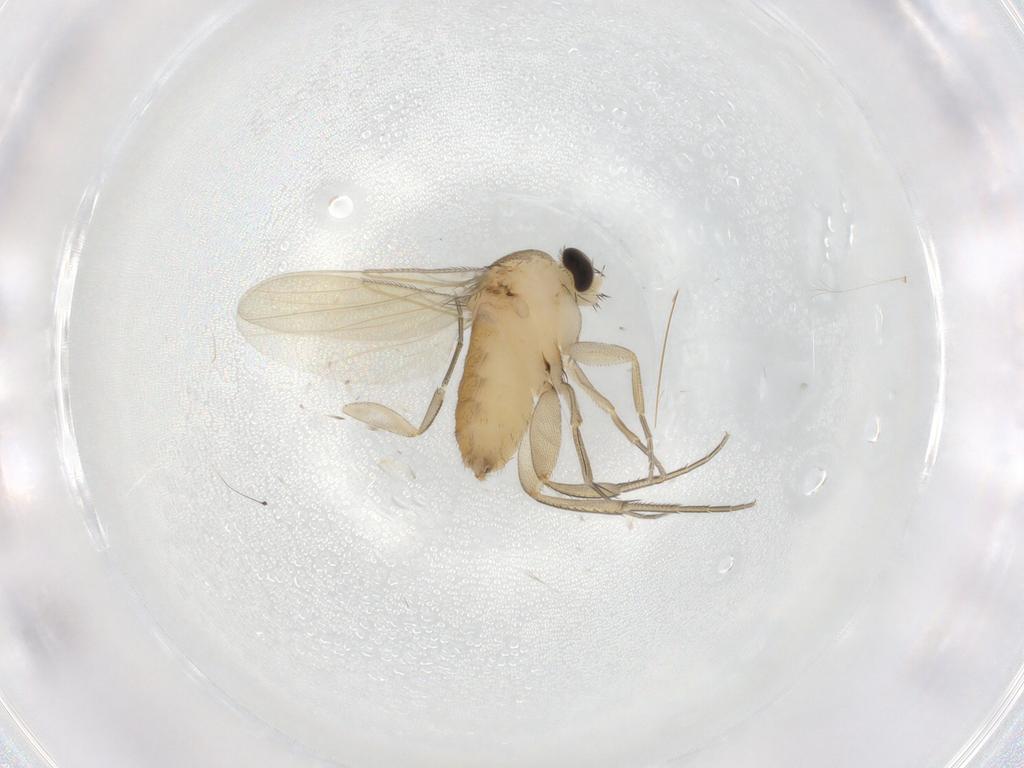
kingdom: Animalia
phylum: Arthropoda
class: Insecta
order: Diptera
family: Phoridae
